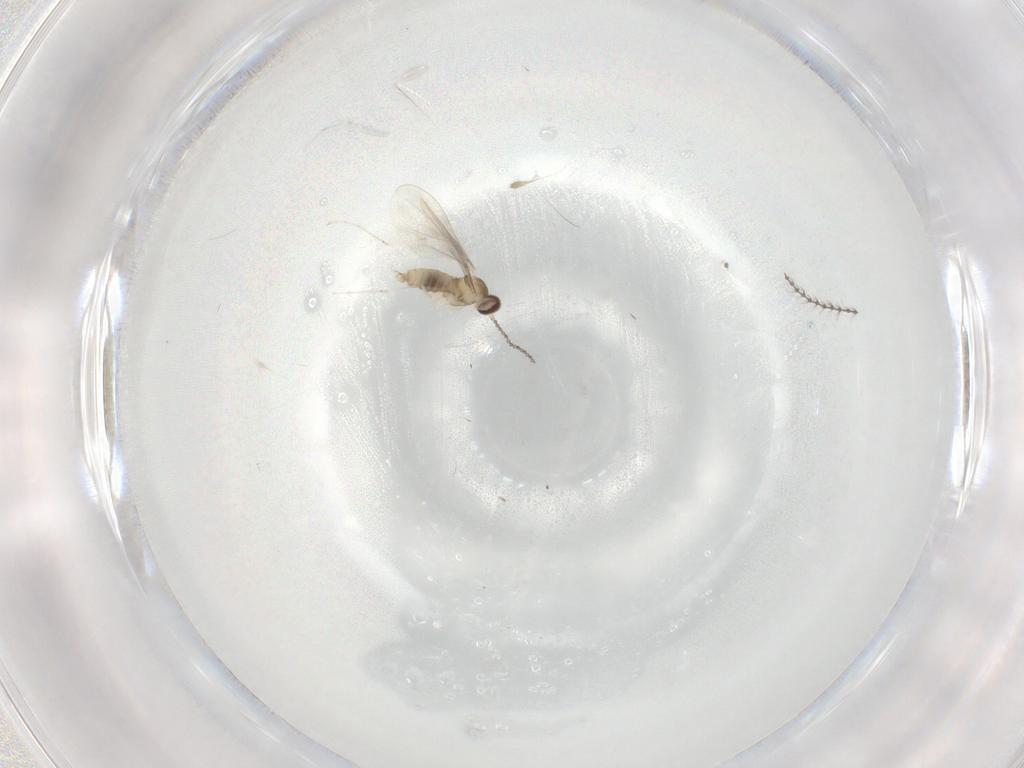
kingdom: Animalia
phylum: Arthropoda
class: Insecta
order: Diptera
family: Cecidomyiidae
